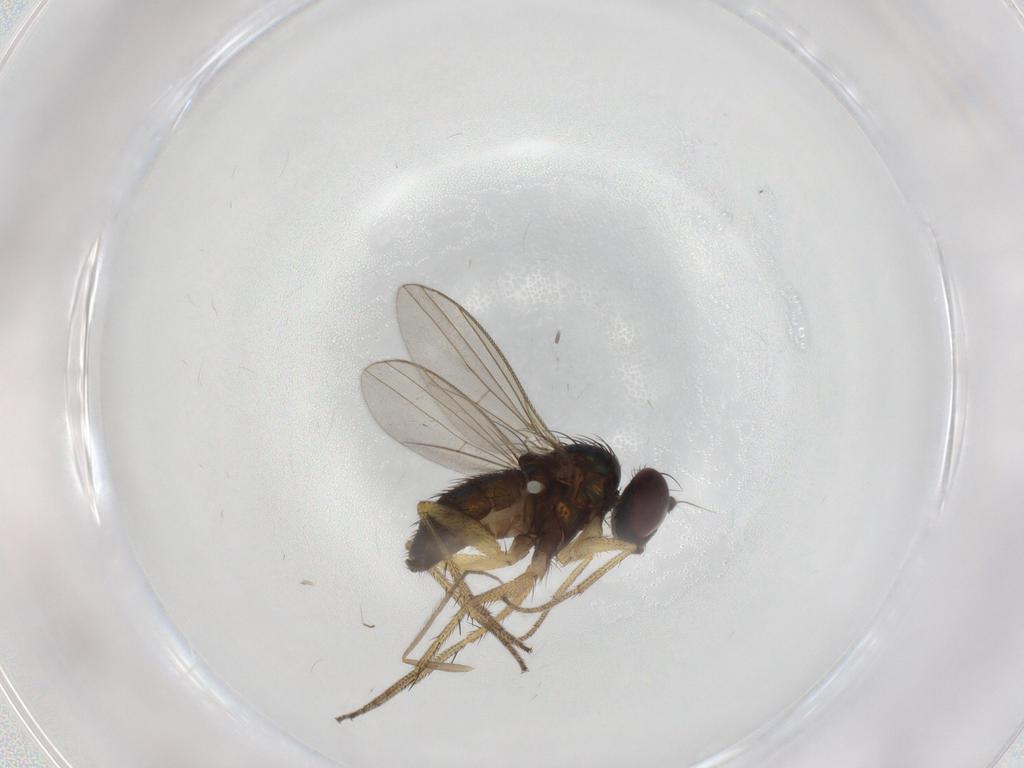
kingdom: Animalia
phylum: Arthropoda
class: Insecta
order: Diptera
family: Chironomidae
